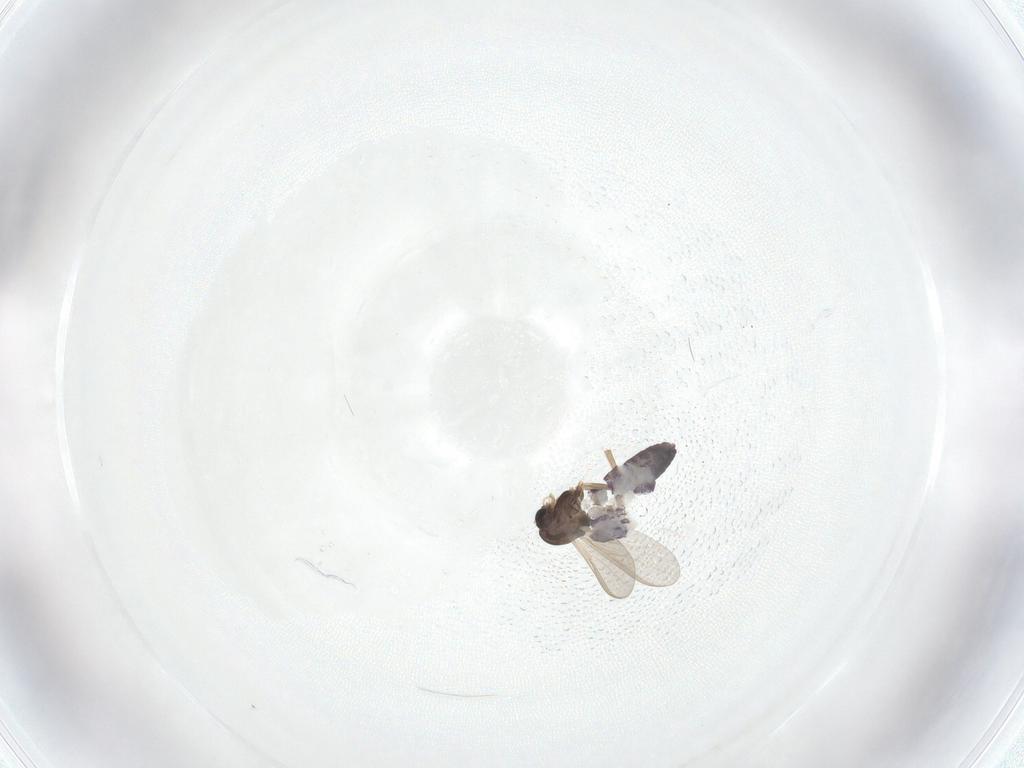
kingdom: Animalia
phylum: Arthropoda
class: Insecta
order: Diptera
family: Chironomidae
